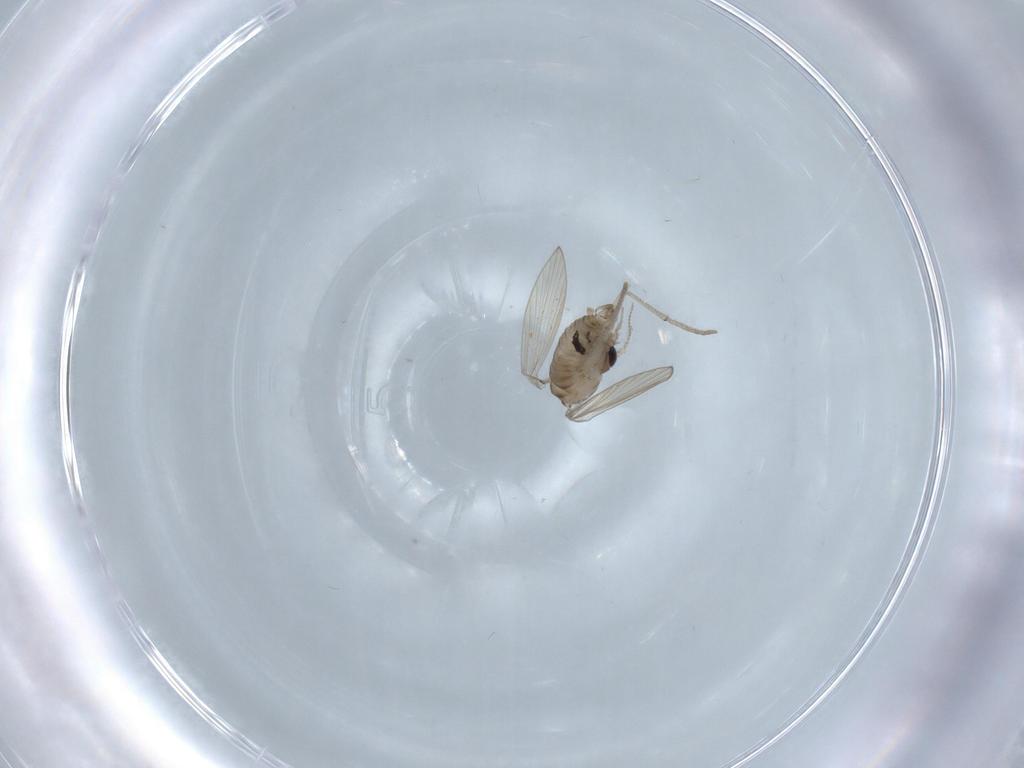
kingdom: Animalia
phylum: Arthropoda
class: Insecta
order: Diptera
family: Psychodidae
